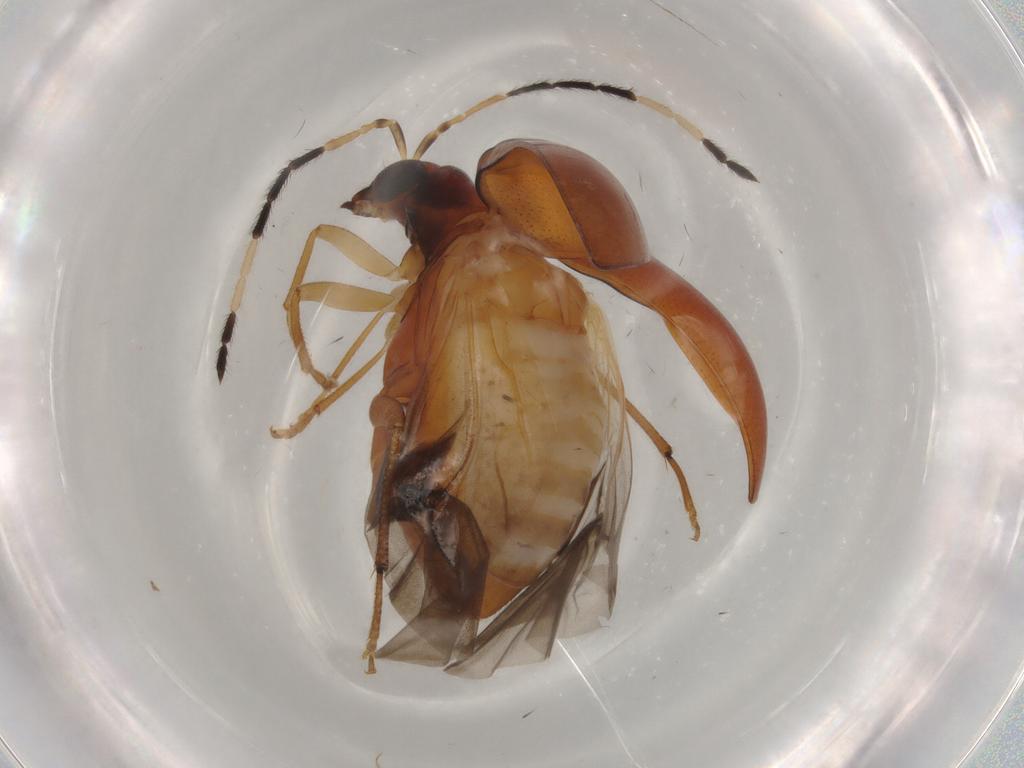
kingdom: Animalia
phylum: Arthropoda
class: Insecta
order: Coleoptera
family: Chrysomelidae
